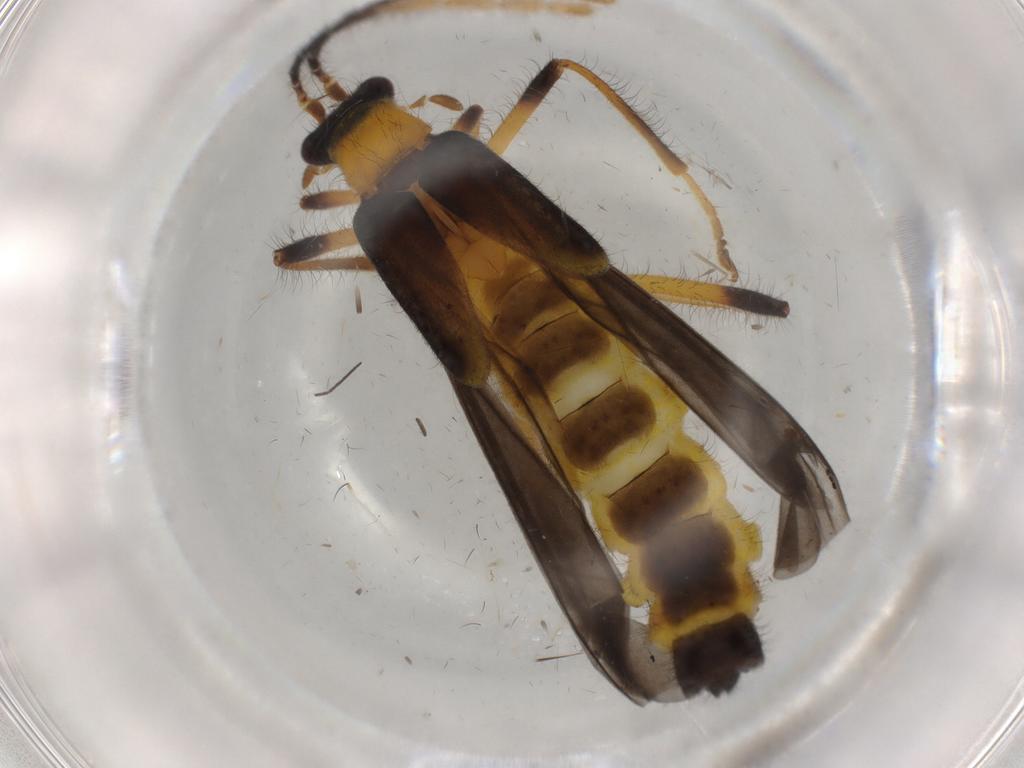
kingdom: Animalia
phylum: Arthropoda
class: Insecta
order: Coleoptera
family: Cantharidae
